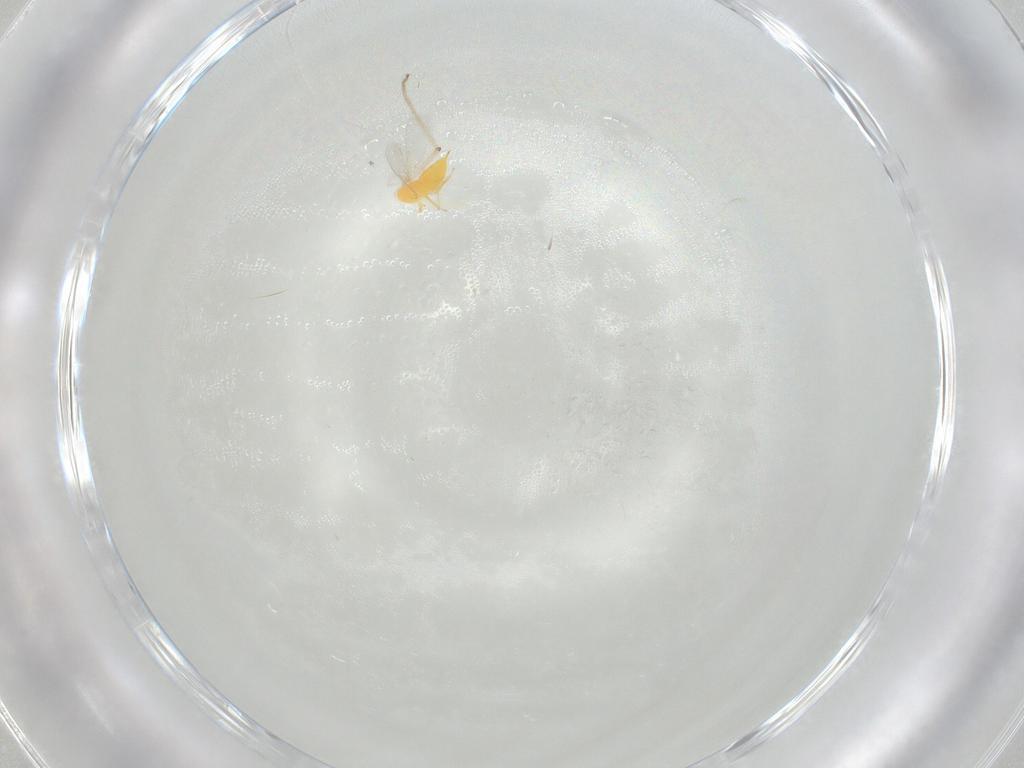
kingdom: Animalia
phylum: Arthropoda
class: Insecta
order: Hymenoptera
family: Aphelinidae
